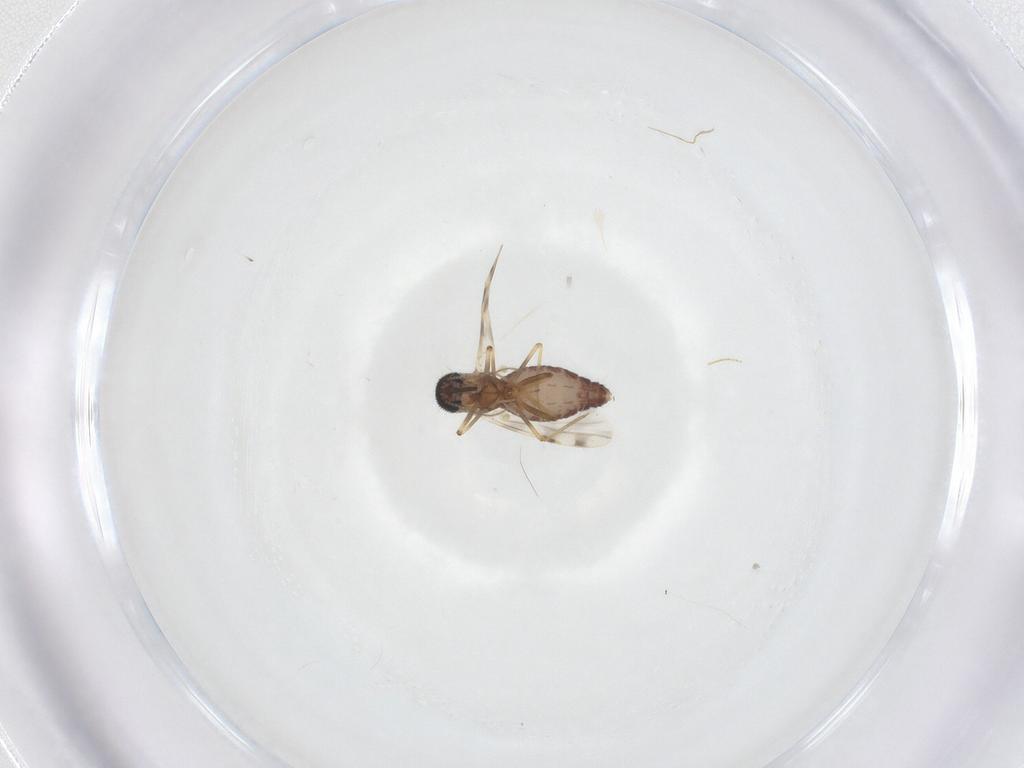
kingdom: Animalia
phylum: Arthropoda
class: Insecta
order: Diptera
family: Chironomidae
